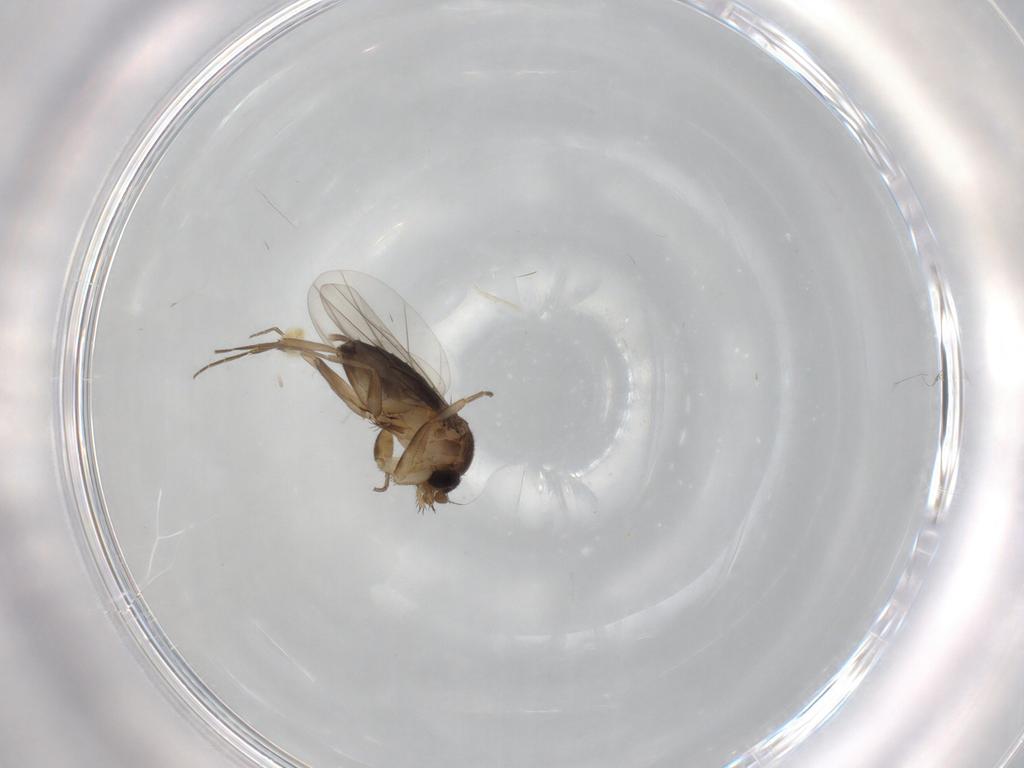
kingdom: Animalia
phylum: Arthropoda
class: Insecta
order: Diptera
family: Phoridae
